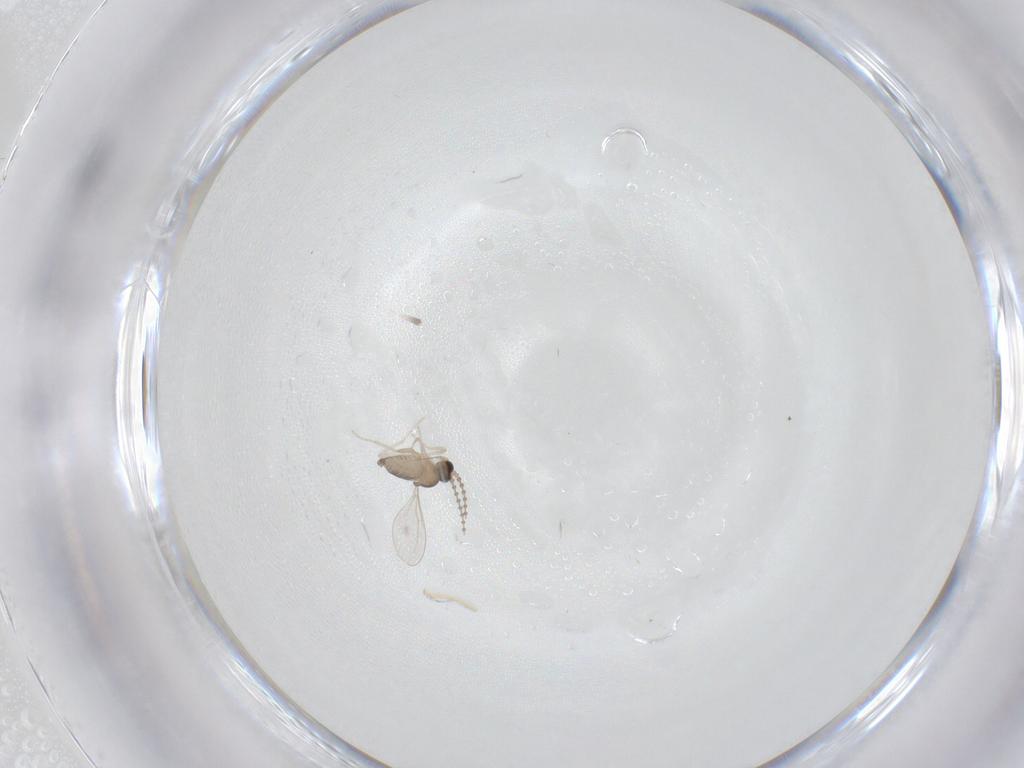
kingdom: Animalia
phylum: Arthropoda
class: Insecta
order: Diptera
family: Cecidomyiidae
